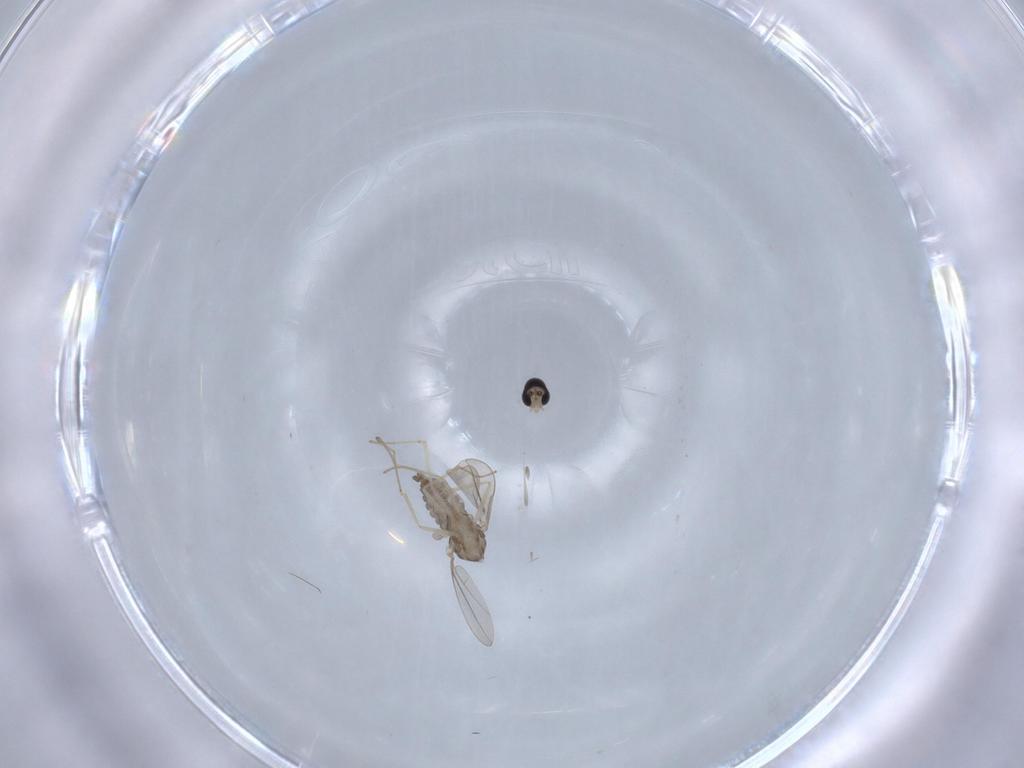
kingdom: Animalia
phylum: Arthropoda
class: Insecta
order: Diptera
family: Cecidomyiidae
